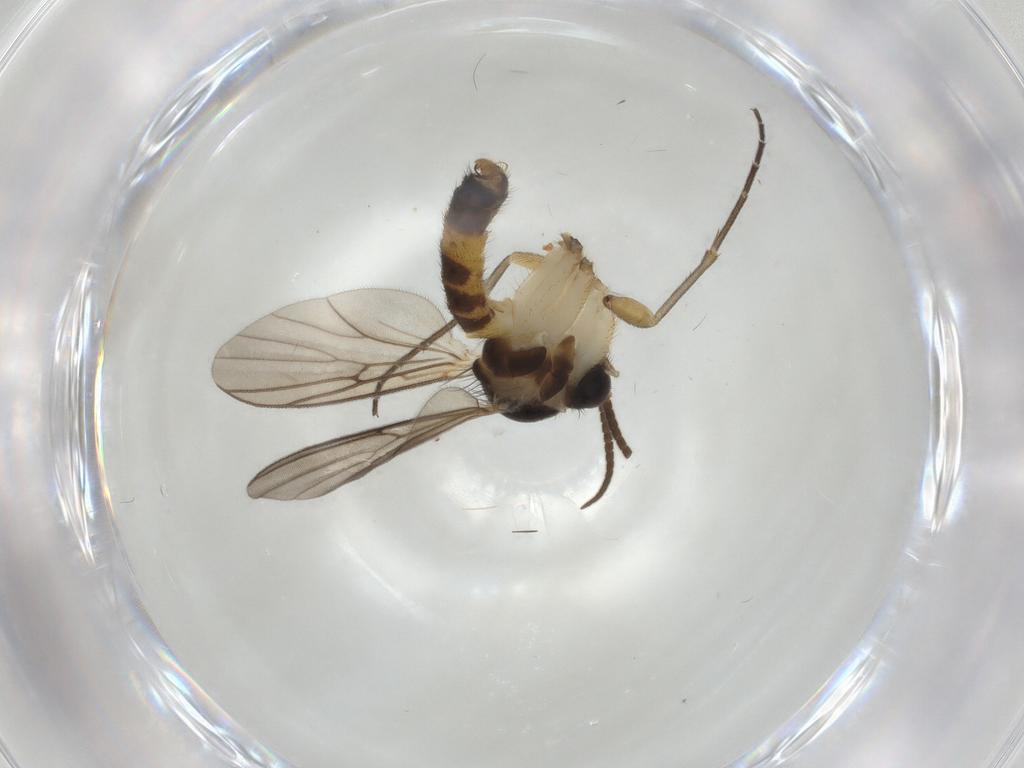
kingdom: Animalia
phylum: Arthropoda
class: Insecta
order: Diptera
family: Mycetophilidae
